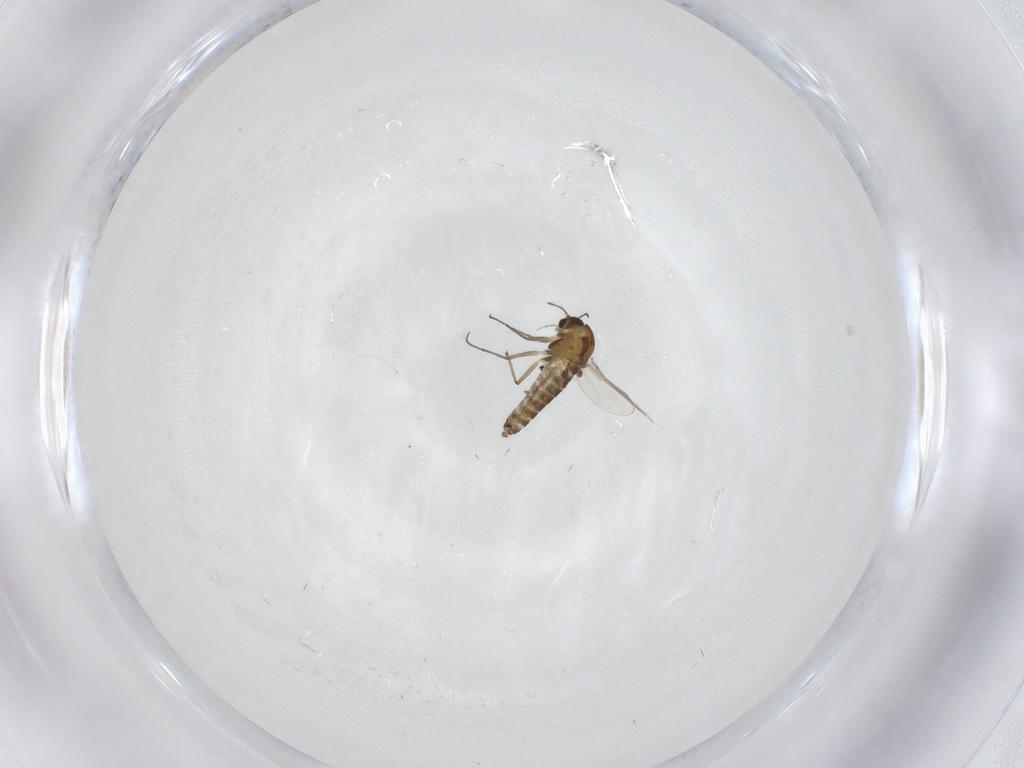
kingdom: Animalia
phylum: Arthropoda
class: Insecta
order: Diptera
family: Chironomidae
